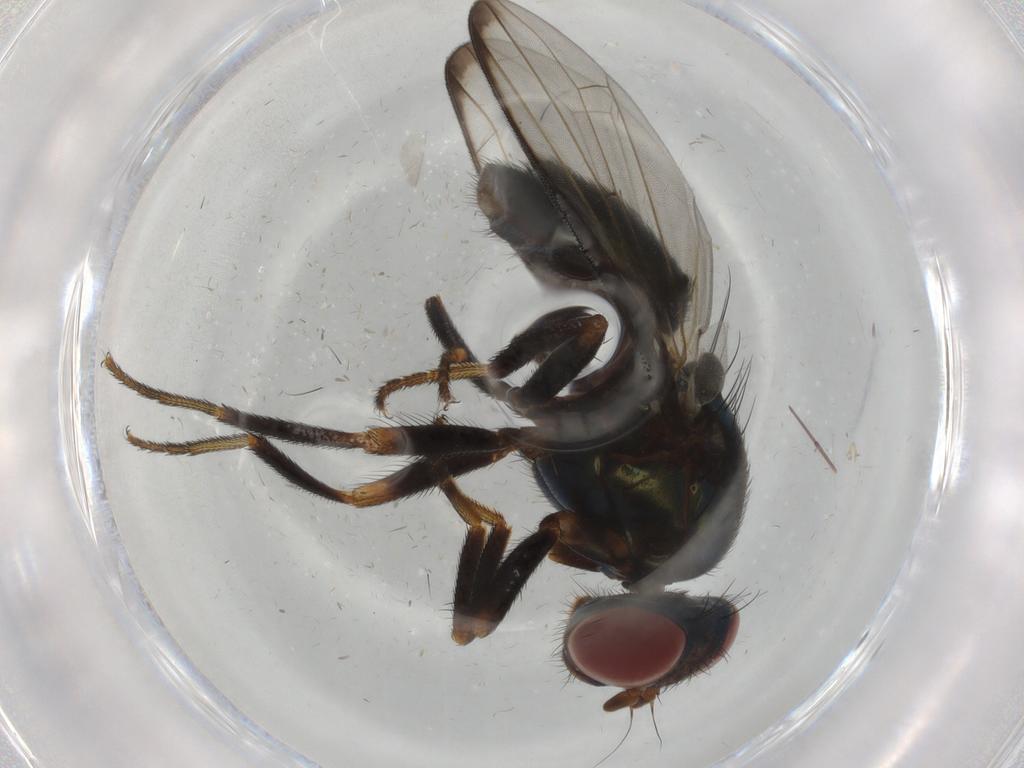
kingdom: Animalia
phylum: Arthropoda
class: Insecta
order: Diptera
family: Ulidiidae
